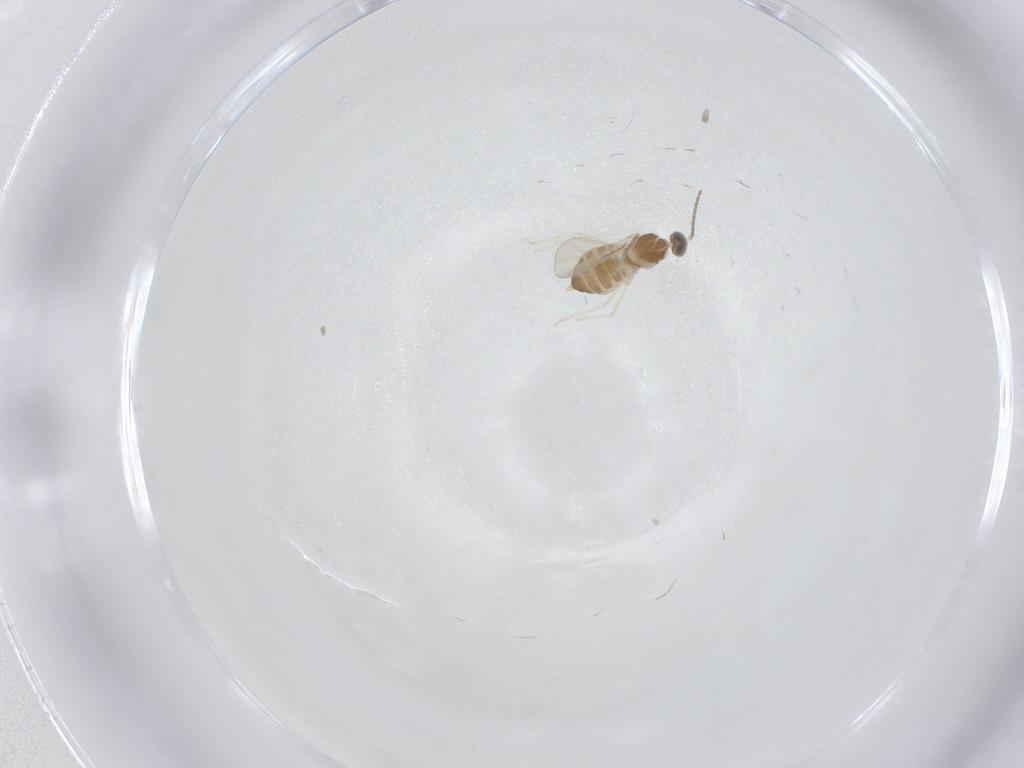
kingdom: Animalia
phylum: Arthropoda
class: Insecta
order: Diptera
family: Cecidomyiidae
